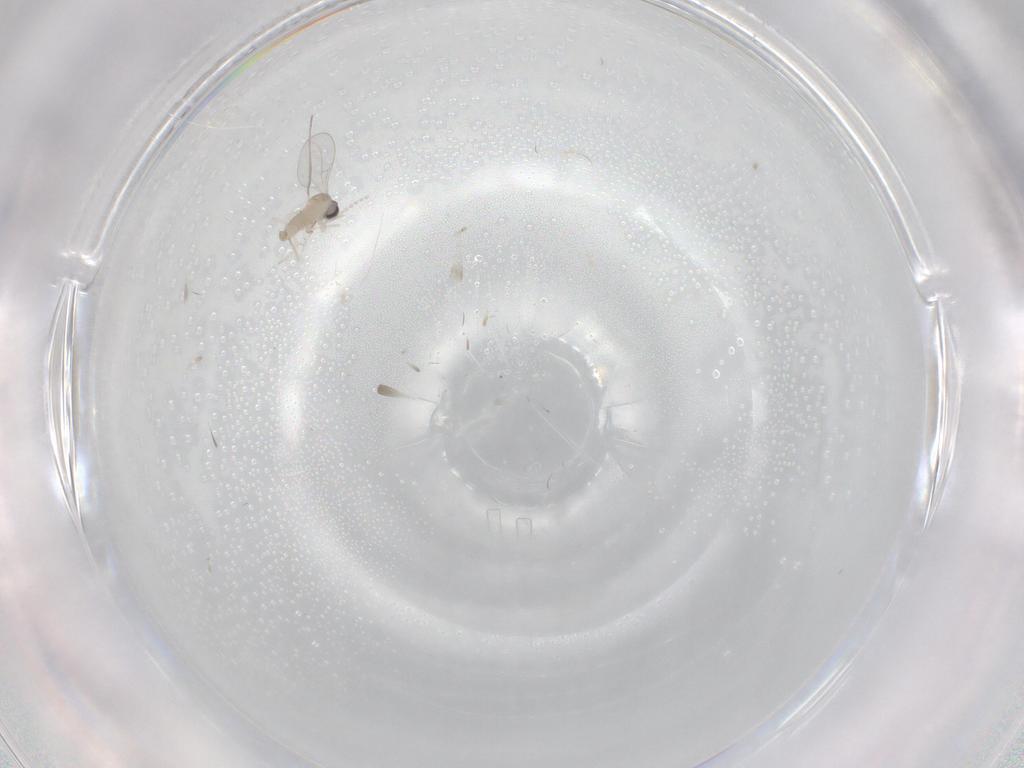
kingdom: Animalia
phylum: Arthropoda
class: Insecta
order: Diptera
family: Cecidomyiidae
